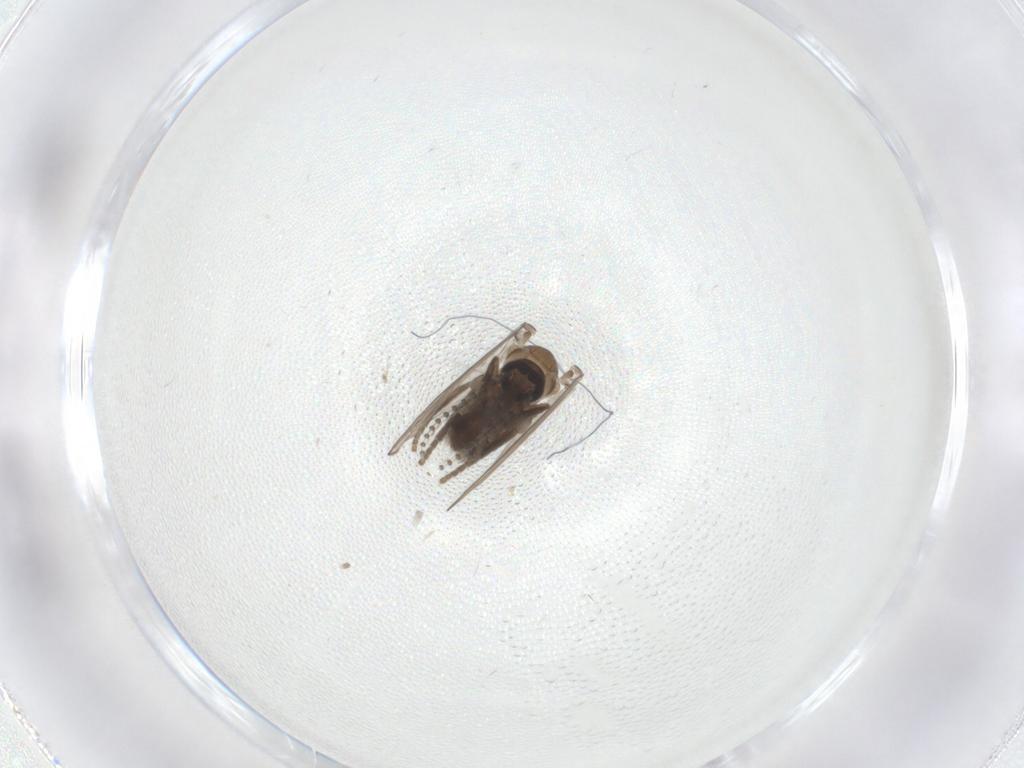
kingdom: Animalia
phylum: Arthropoda
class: Insecta
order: Diptera
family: Psychodidae
